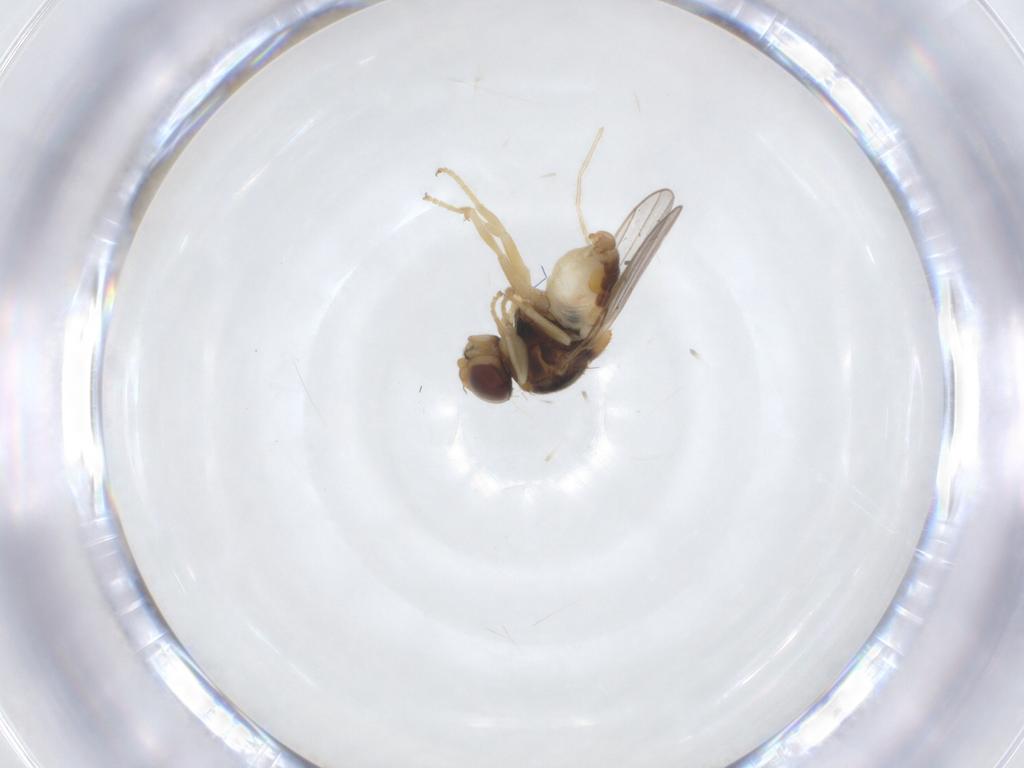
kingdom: Animalia
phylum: Arthropoda
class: Insecta
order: Diptera
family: Chloropidae
